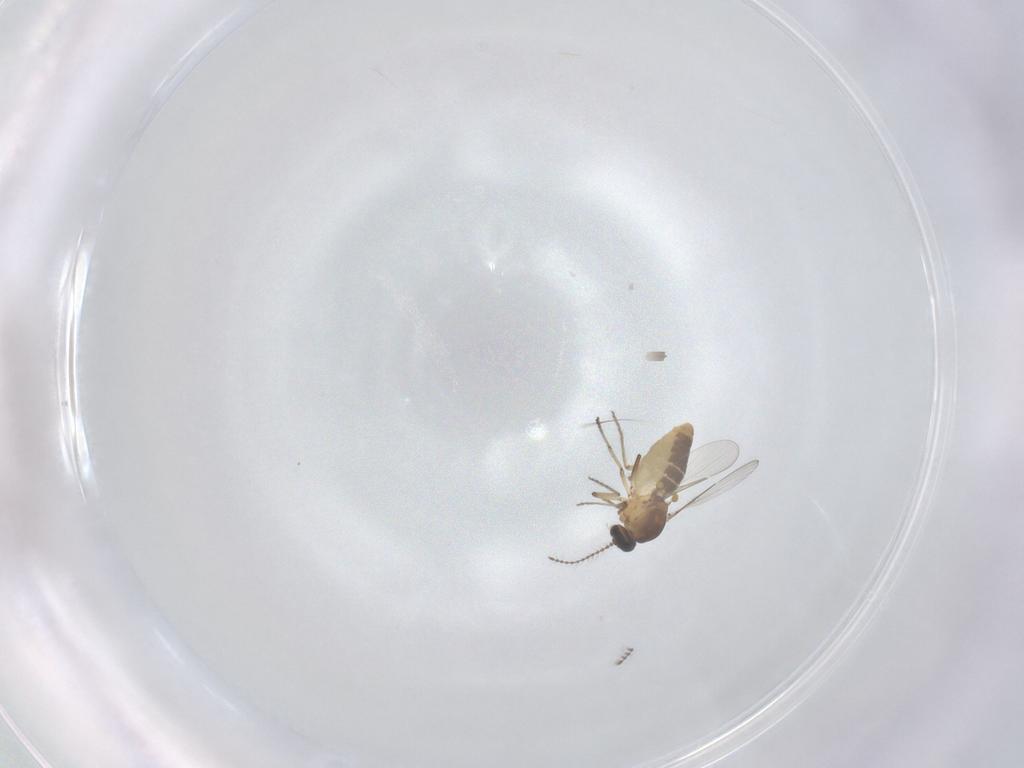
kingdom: Animalia
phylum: Arthropoda
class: Insecta
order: Diptera
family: Ceratopogonidae
